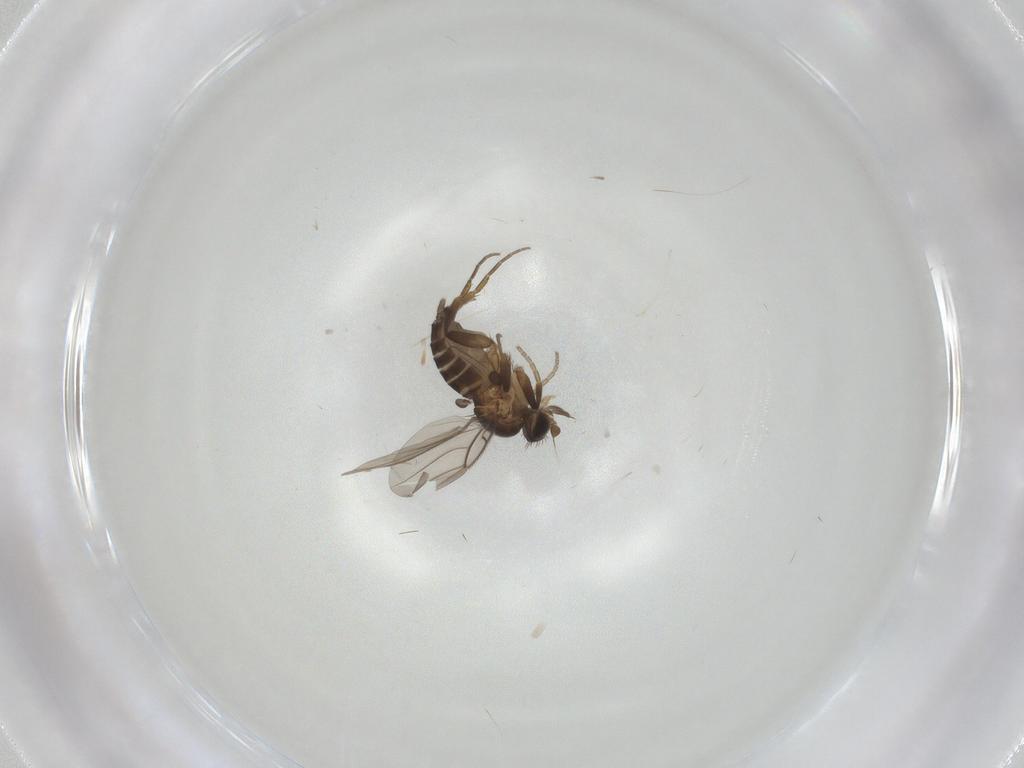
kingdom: Animalia
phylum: Arthropoda
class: Insecta
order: Diptera
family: Phoridae
